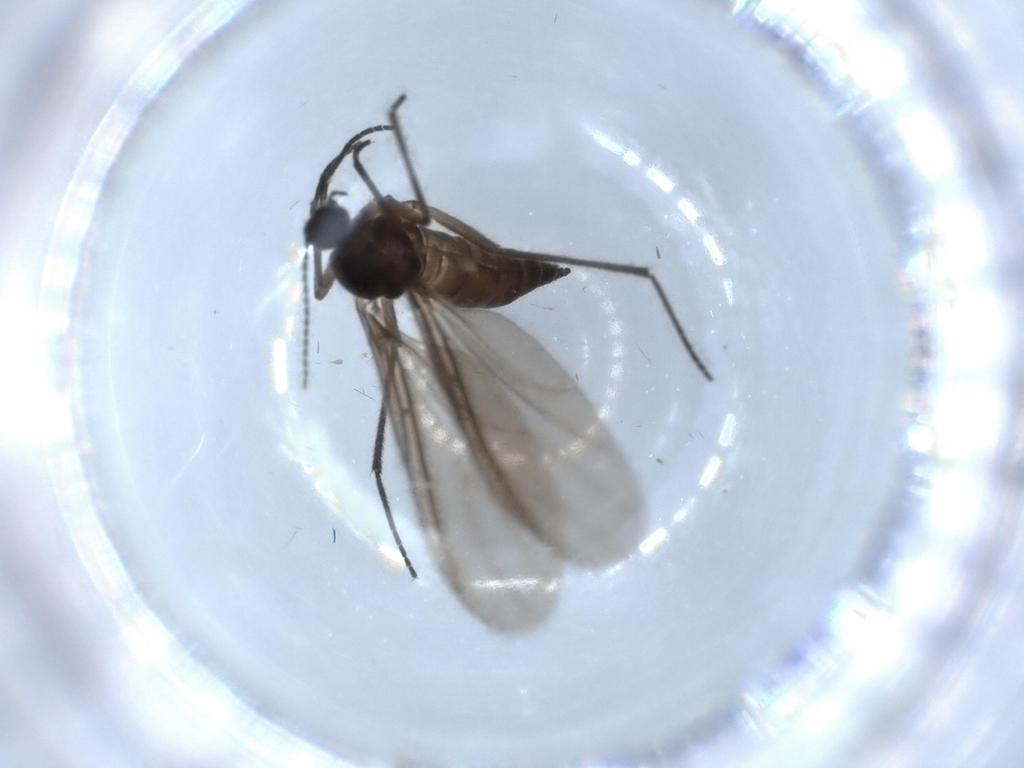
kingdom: Animalia
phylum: Arthropoda
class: Insecta
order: Diptera
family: Sciaridae
